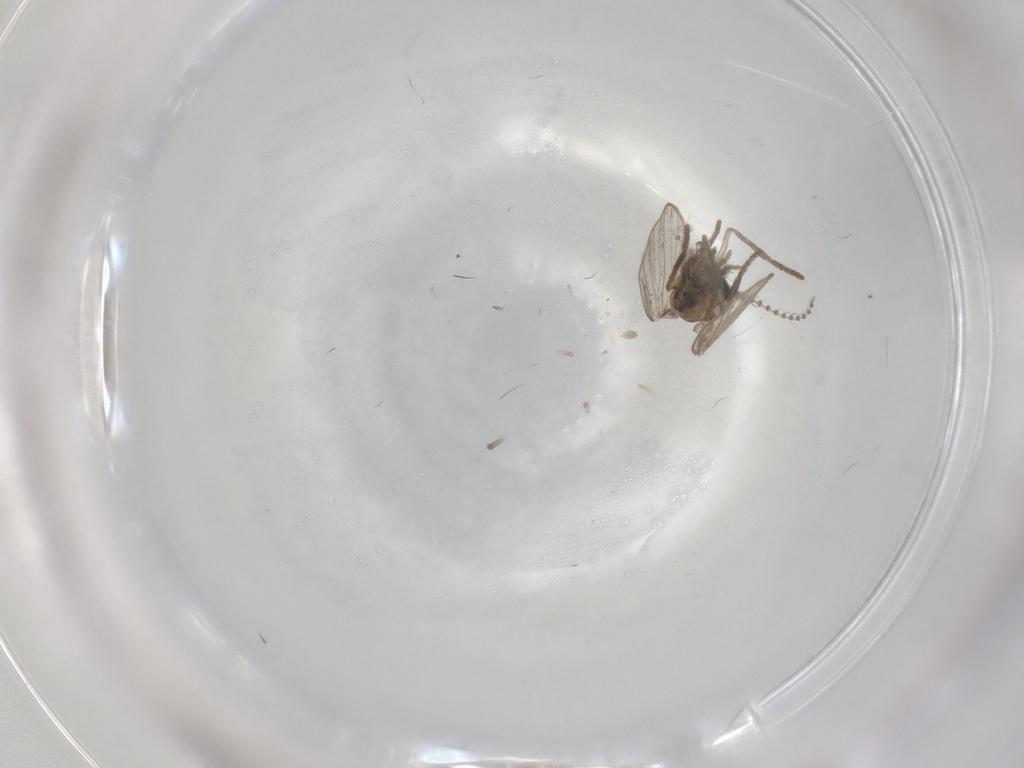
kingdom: Animalia
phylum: Arthropoda
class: Insecta
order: Diptera
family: Psychodidae
